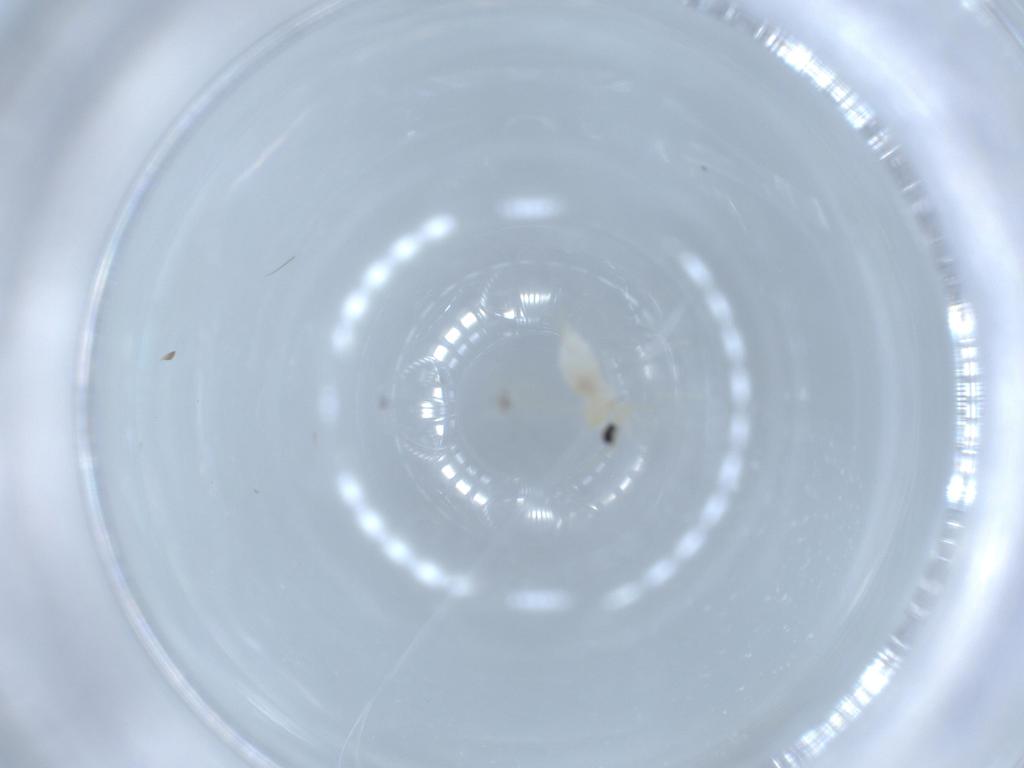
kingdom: Animalia
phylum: Arthropoda
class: Insecta
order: Diptera
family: Cecidomyiidae
